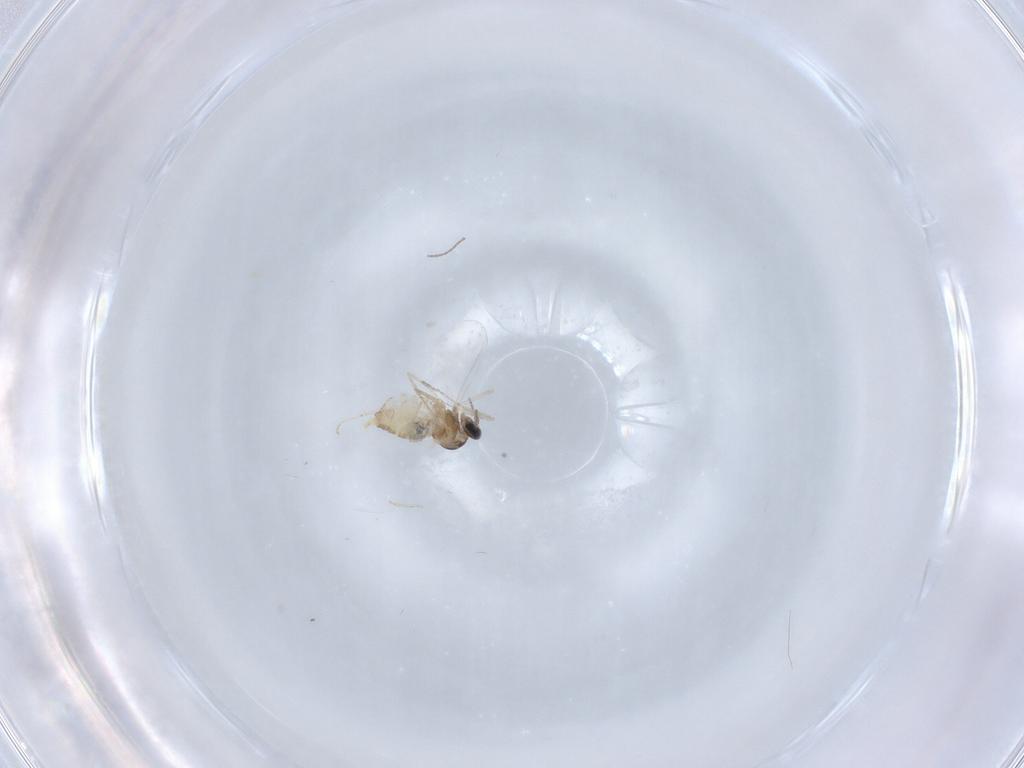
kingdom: Animalia
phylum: Arthropoda
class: Insecta
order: Diptera
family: Cecidomyiidae
